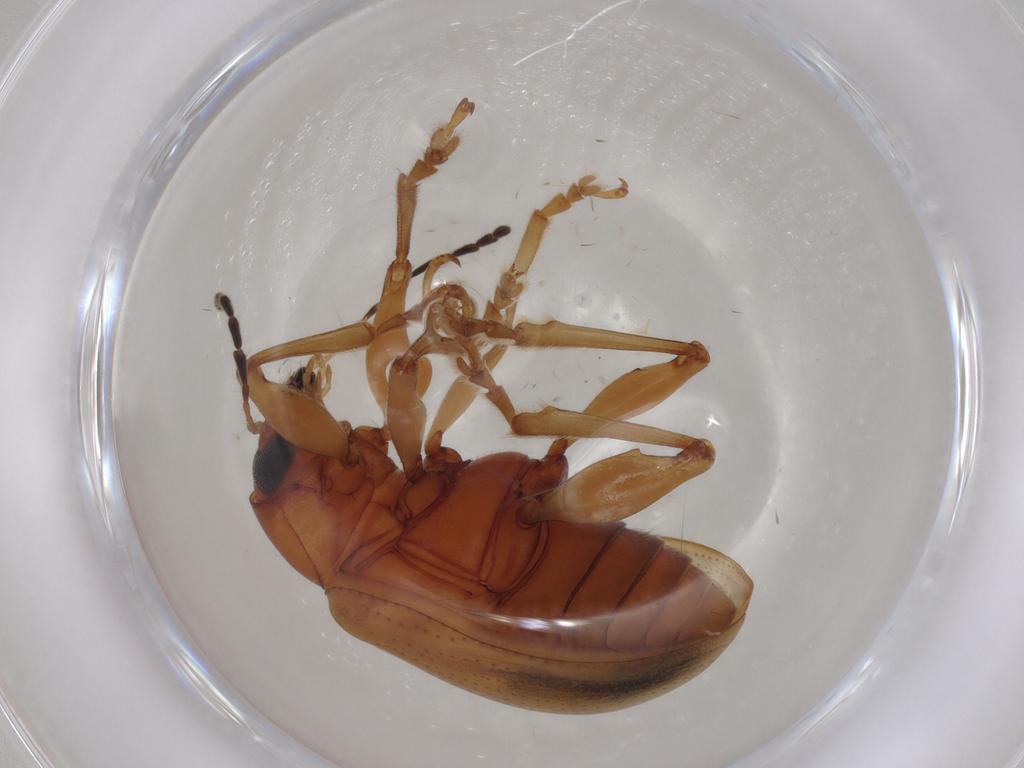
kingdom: Animalia
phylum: Arthropoda
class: Insecta
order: Coleoptera
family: Chrysomelidae
